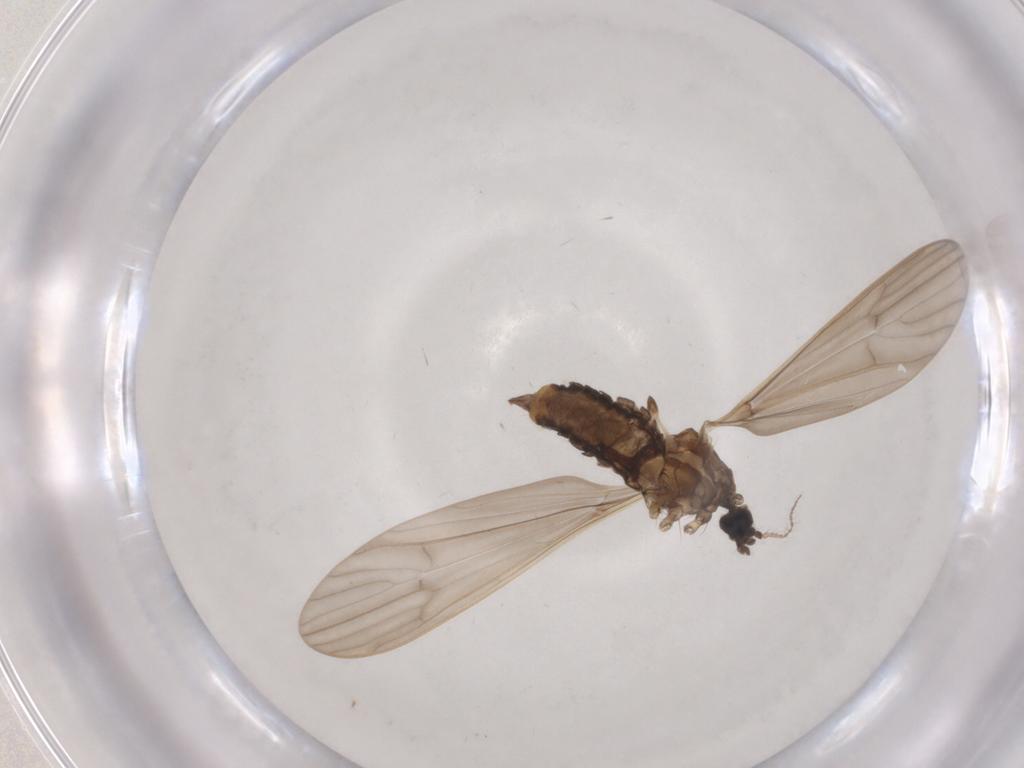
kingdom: Animalia
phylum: Arthropoda
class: Insecta
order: Diptera
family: Limoniidae
